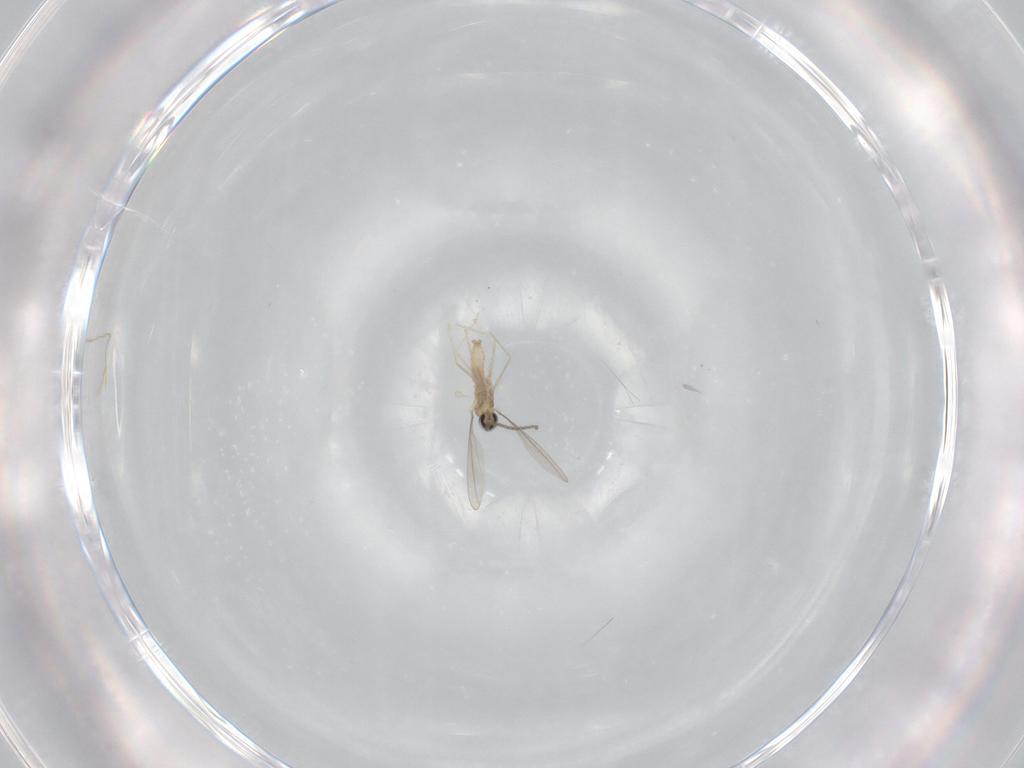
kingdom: Animalia
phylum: Arthropoda
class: Insecta
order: Diptera
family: Cecidomyiidae
